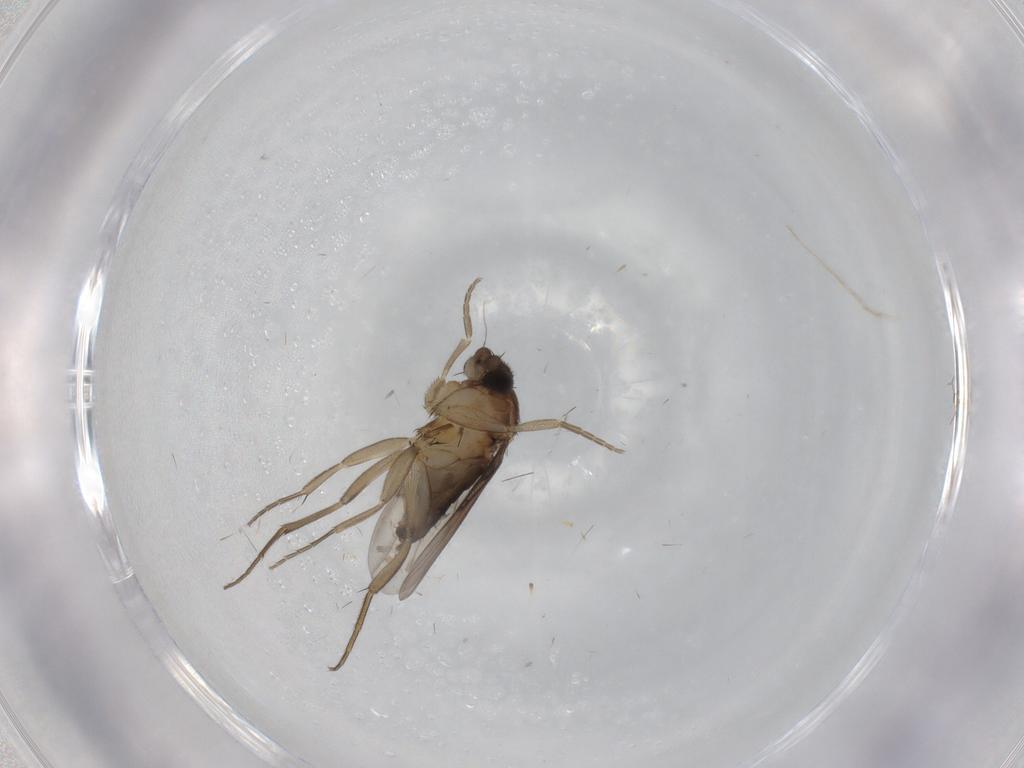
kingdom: Animalia
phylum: Arthropoda
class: Insecta
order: Diptera
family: Phoridae
